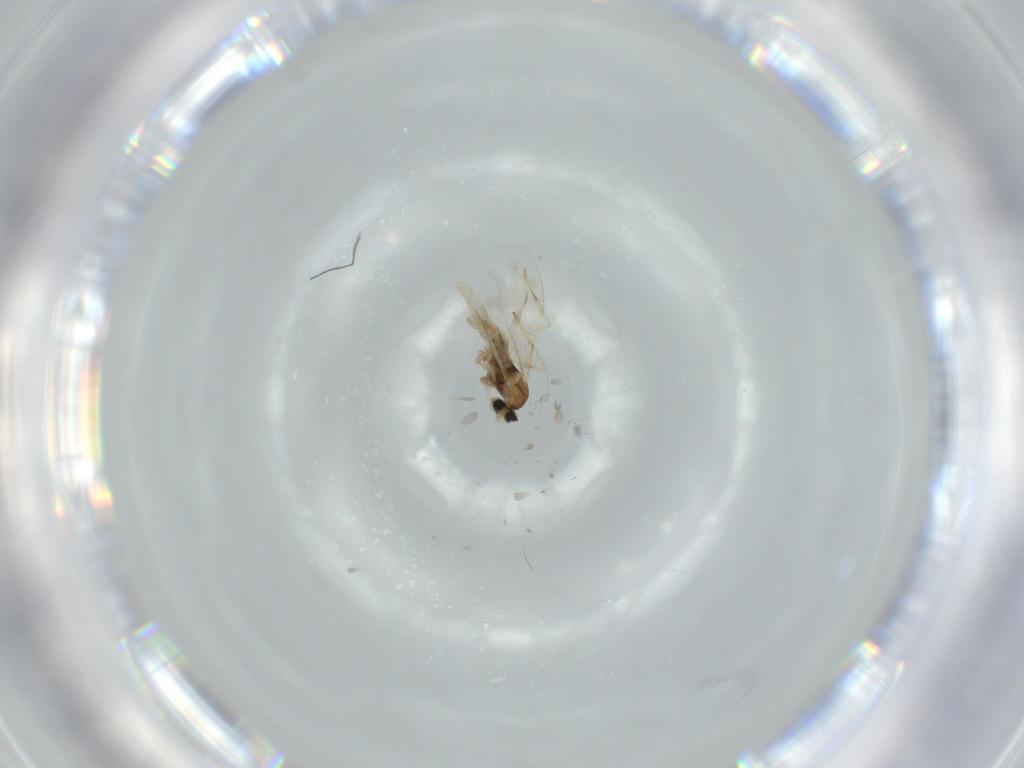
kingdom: Animalia
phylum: Arthropoda
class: Insecta
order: Diptera
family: Cecidomyiidae
